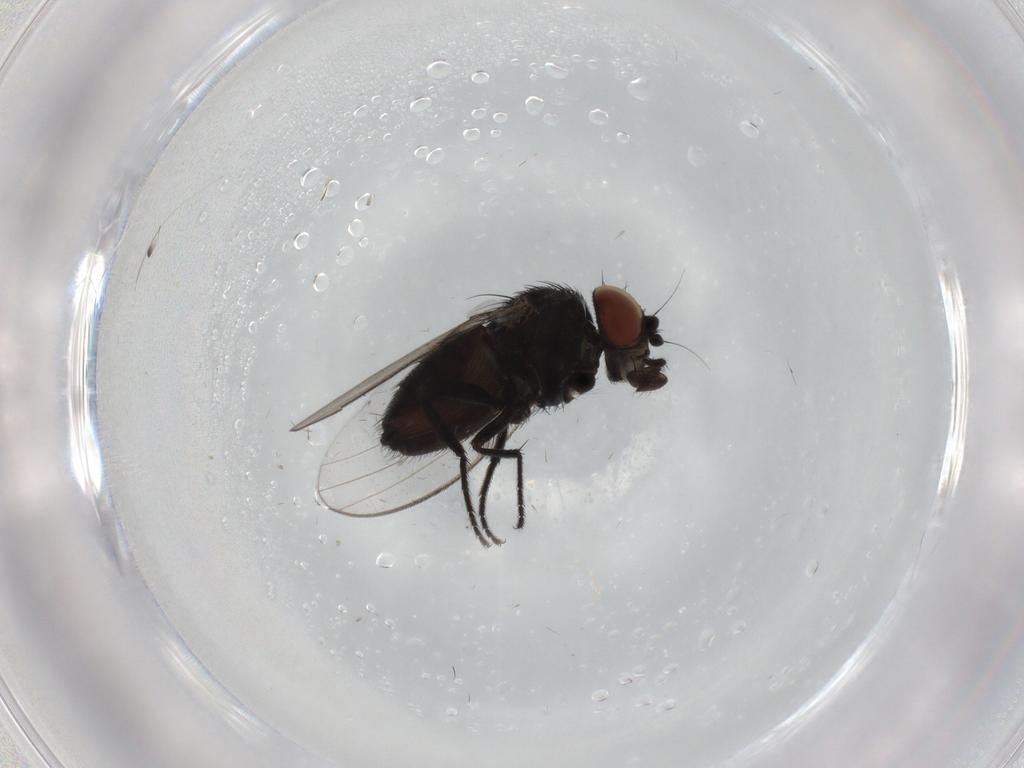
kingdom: Animalia
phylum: Arthropoda
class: Insecta
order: Diptera
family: Milichiidae
